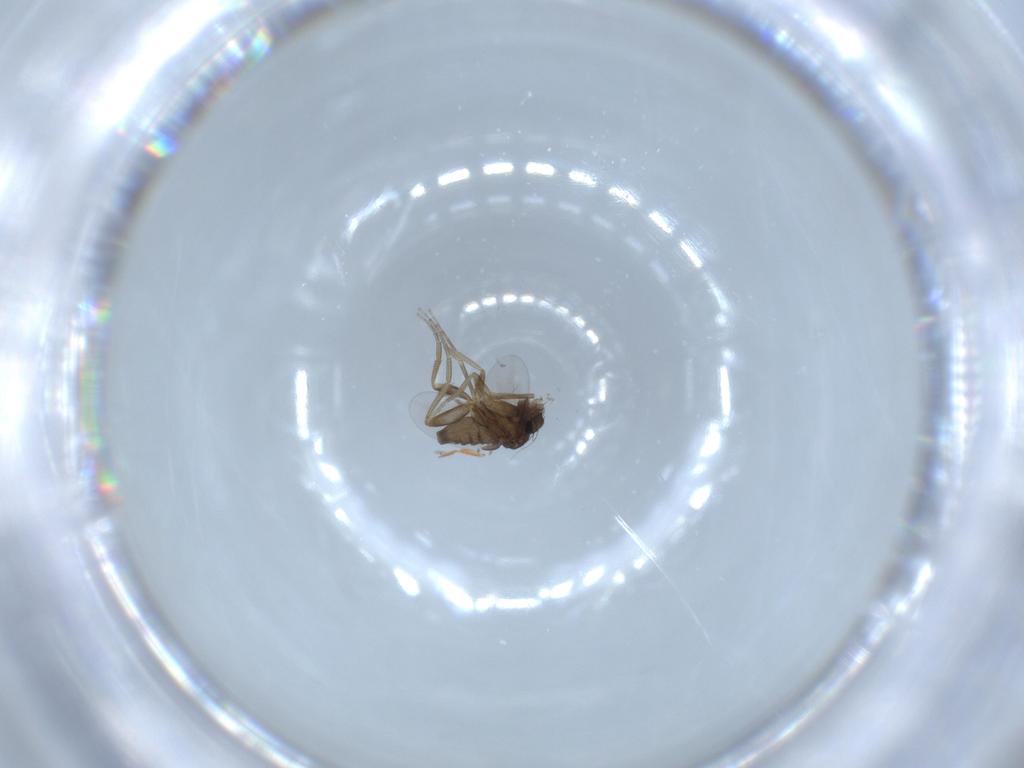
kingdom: Animalia
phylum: Arthropoda
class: Insecta
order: Diptera
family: Phoridae
